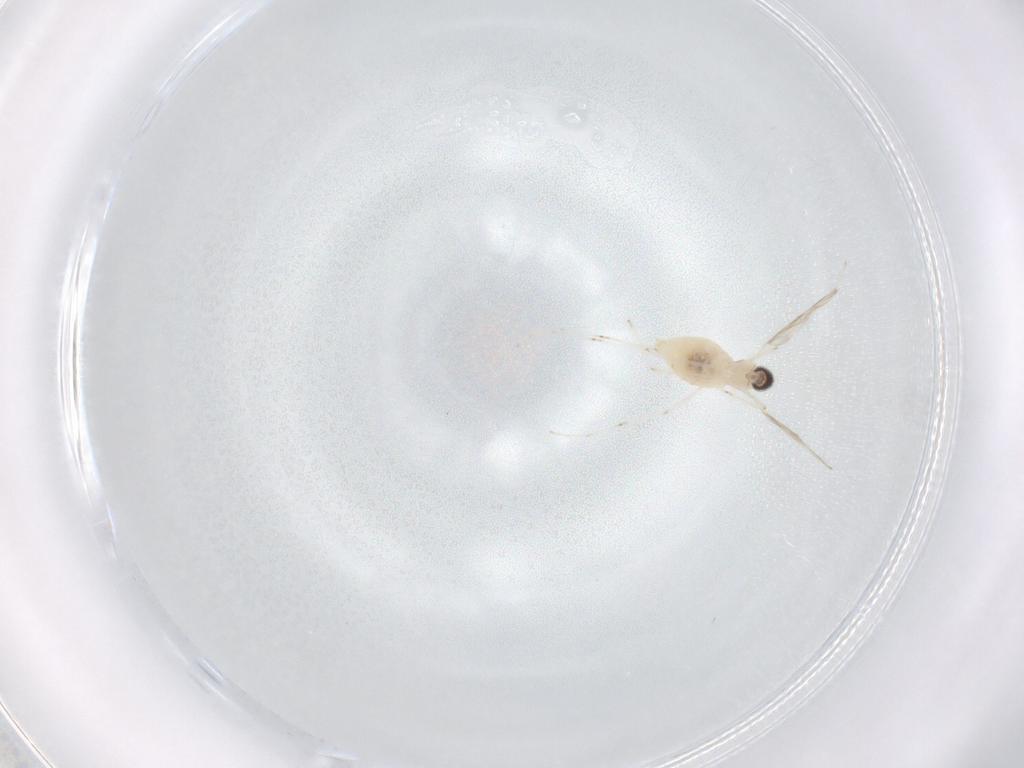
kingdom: Animalia
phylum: Arthropoda
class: Insecta
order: Diptera
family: Cecidomyiidae
